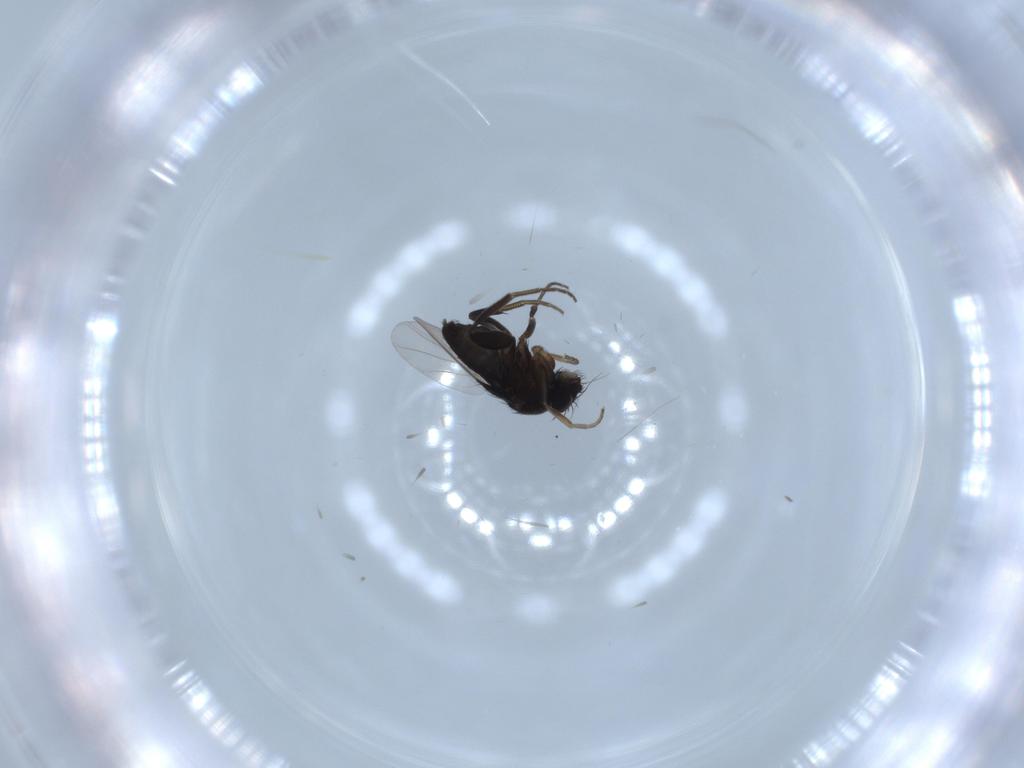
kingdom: Animalia
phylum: Arthropoda
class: Insecta
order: Diptera
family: Phoridae
